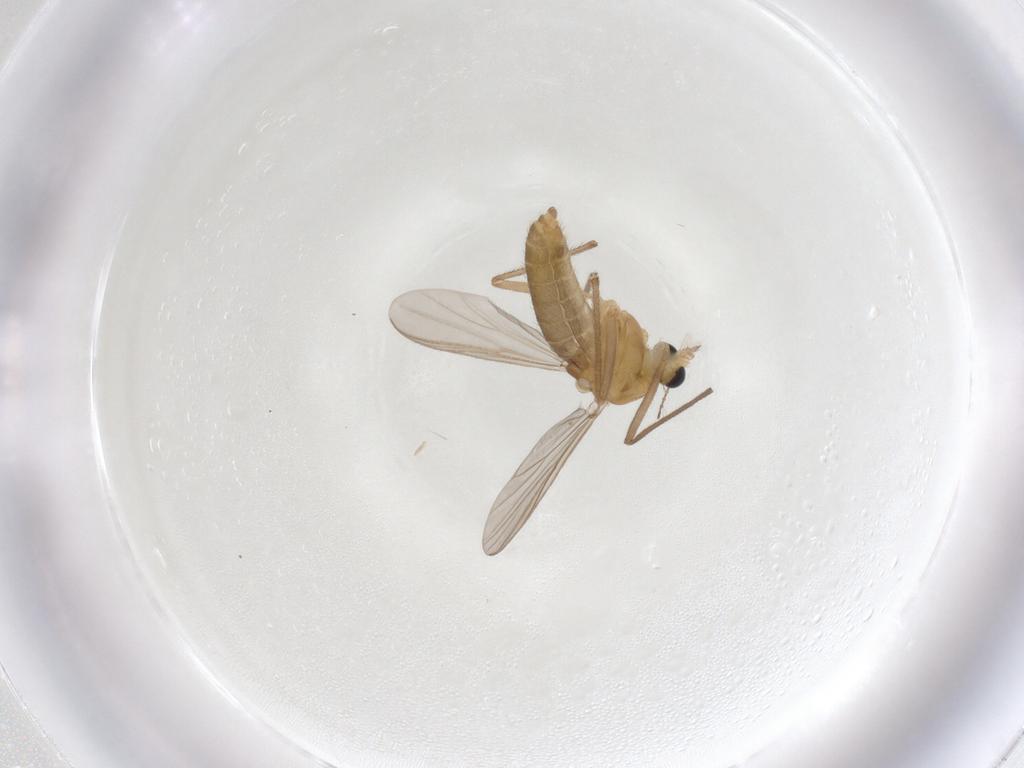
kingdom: Animalia
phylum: Arthropoda
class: Insecta
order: Diptera
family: Chironomidae
